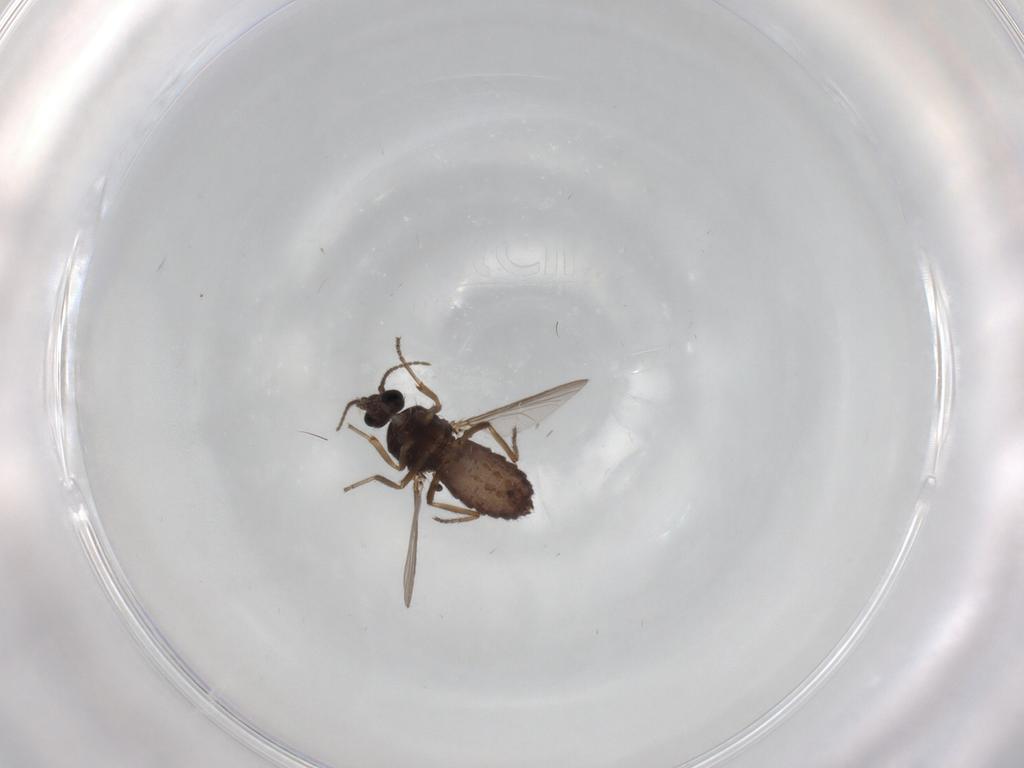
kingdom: Animalia
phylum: Arthropoda
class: Insecta
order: Diptera
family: Ceratopogonidae
